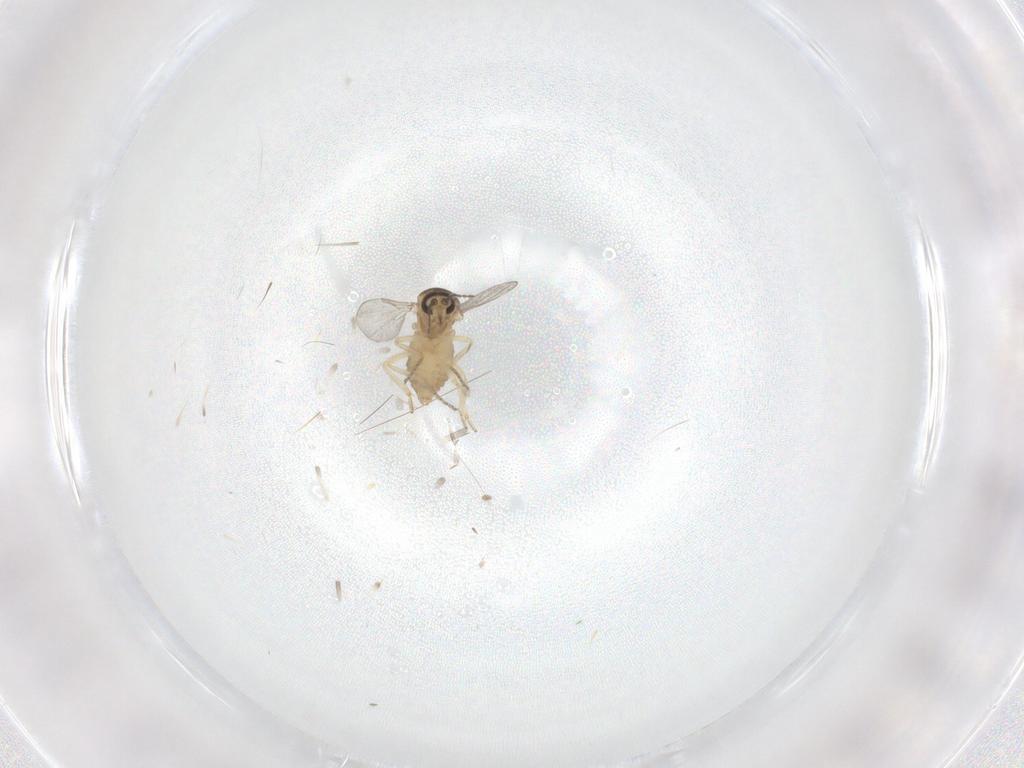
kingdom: Animalia
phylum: Arthropoda
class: Insecta
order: Diptera
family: Ceratopogonidae
